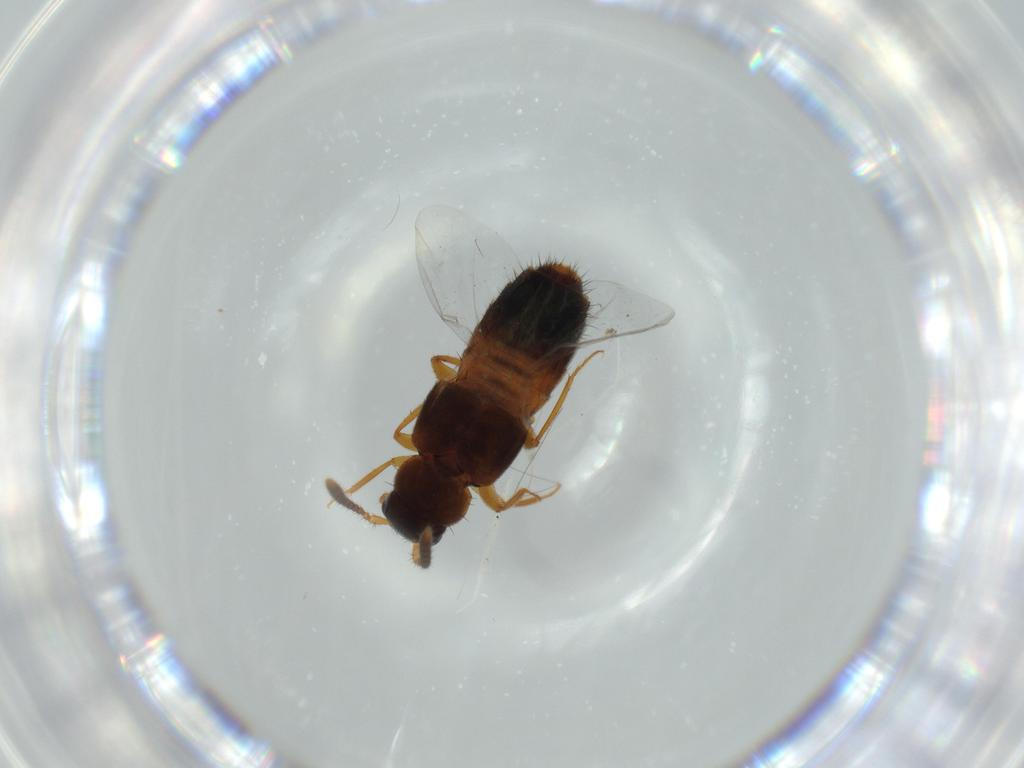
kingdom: Animalia
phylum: Arthropoda
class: Insecta
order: Coleoptera
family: Staphylinidae
